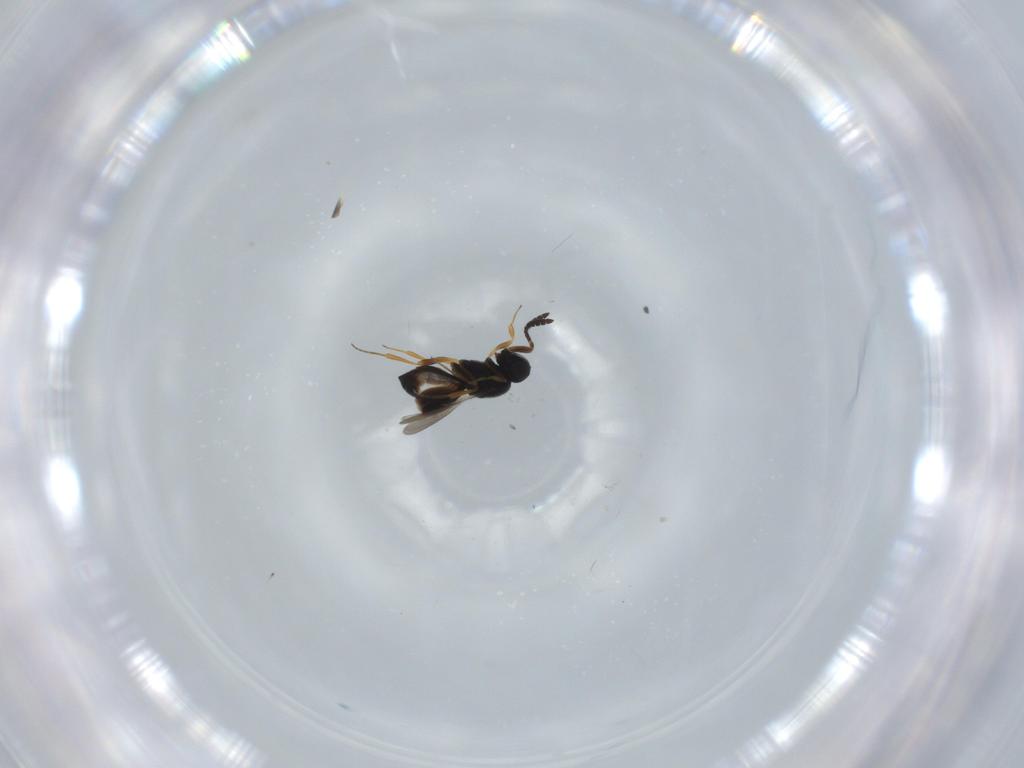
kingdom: Animalia
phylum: Arthropoda
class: Insecta
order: Hymenoptera
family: Scelionidae
